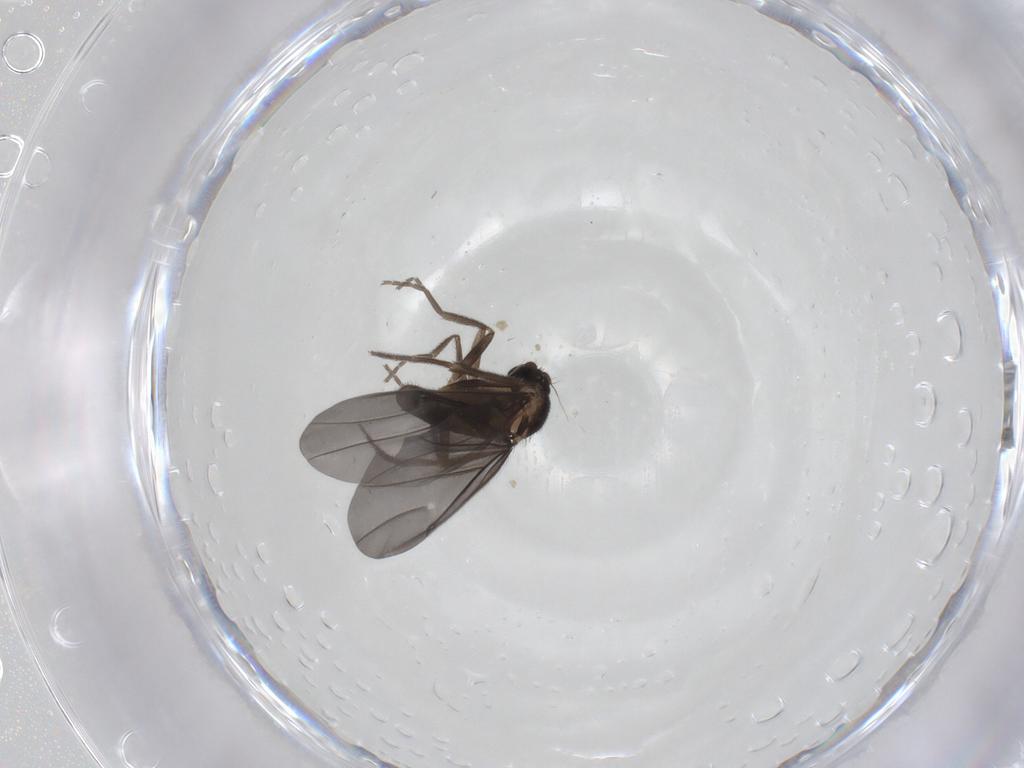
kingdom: Animalia
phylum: Arthropoda
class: Insecta
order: Diptera
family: Phoridae
